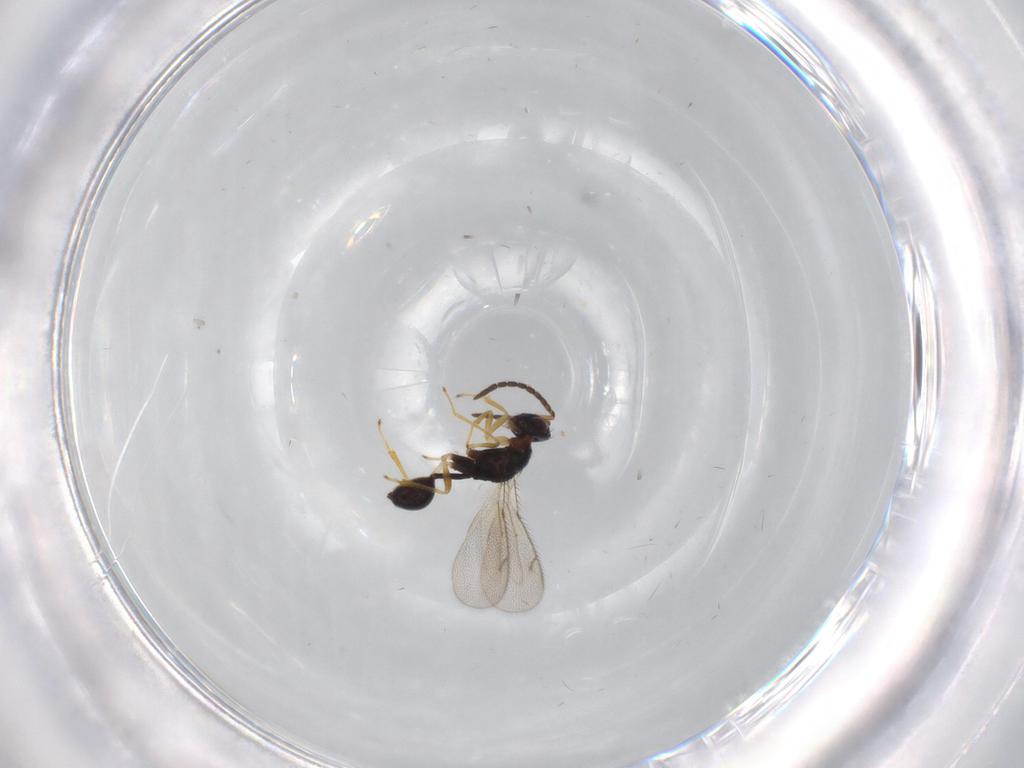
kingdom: Animalia
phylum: Arthropoda
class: Insecta
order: Hymenoptera
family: Diparidae
